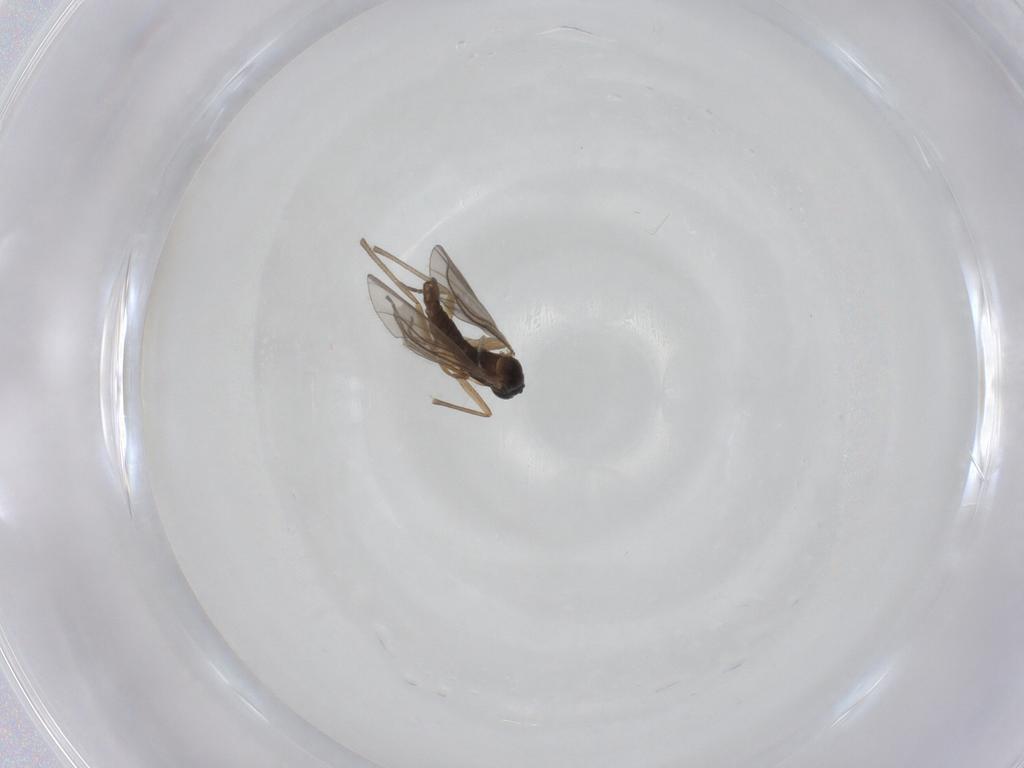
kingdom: Animalia
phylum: Arthropoda
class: Insecta
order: Diptera
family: Sciaridae
